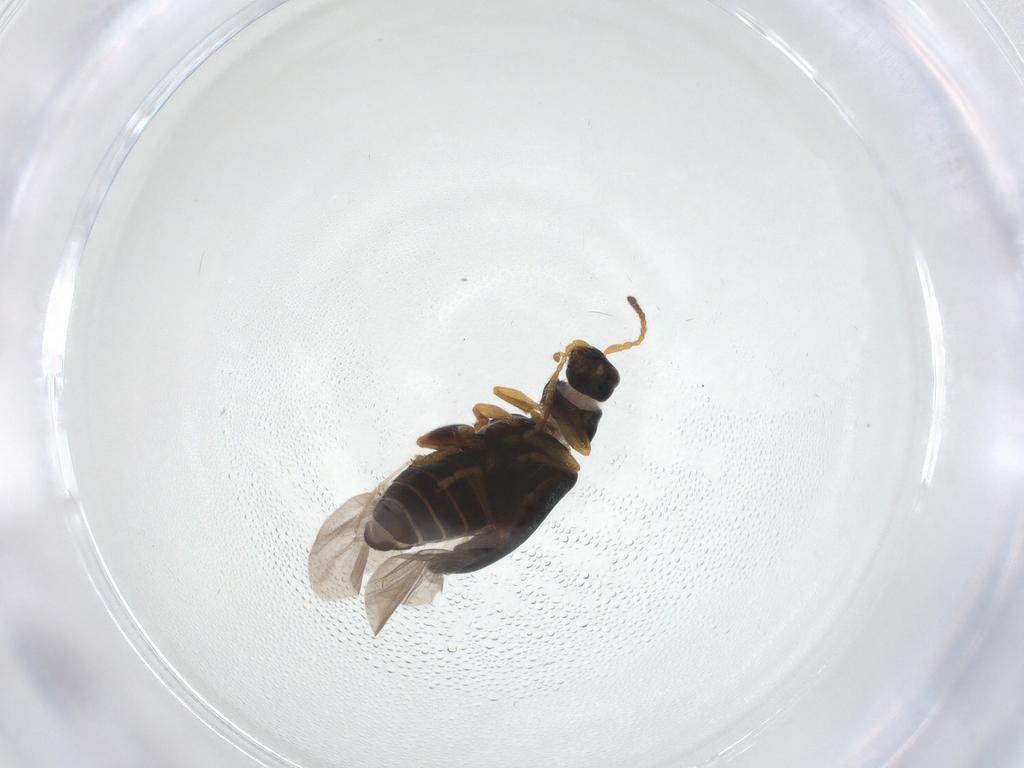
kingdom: Animalia
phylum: Arthropoda
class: Insecta
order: Coleoptera
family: Chrysomelidae
